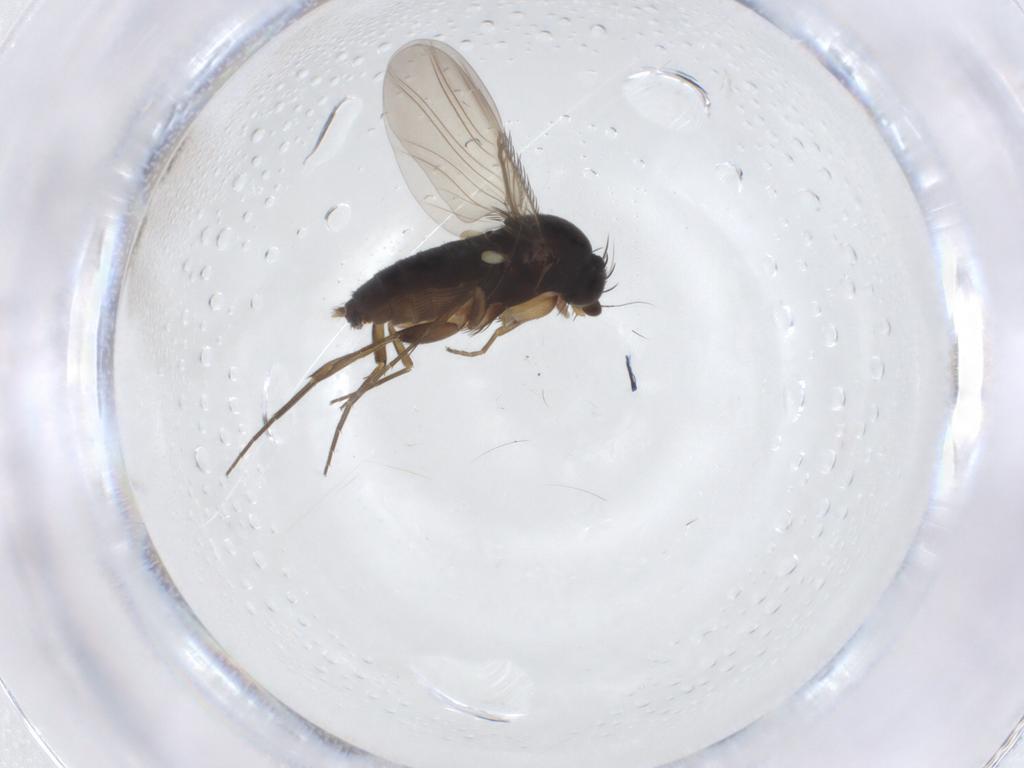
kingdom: Animalia
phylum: Arthropoda
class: Insecta
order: Diptera
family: Phoridae
